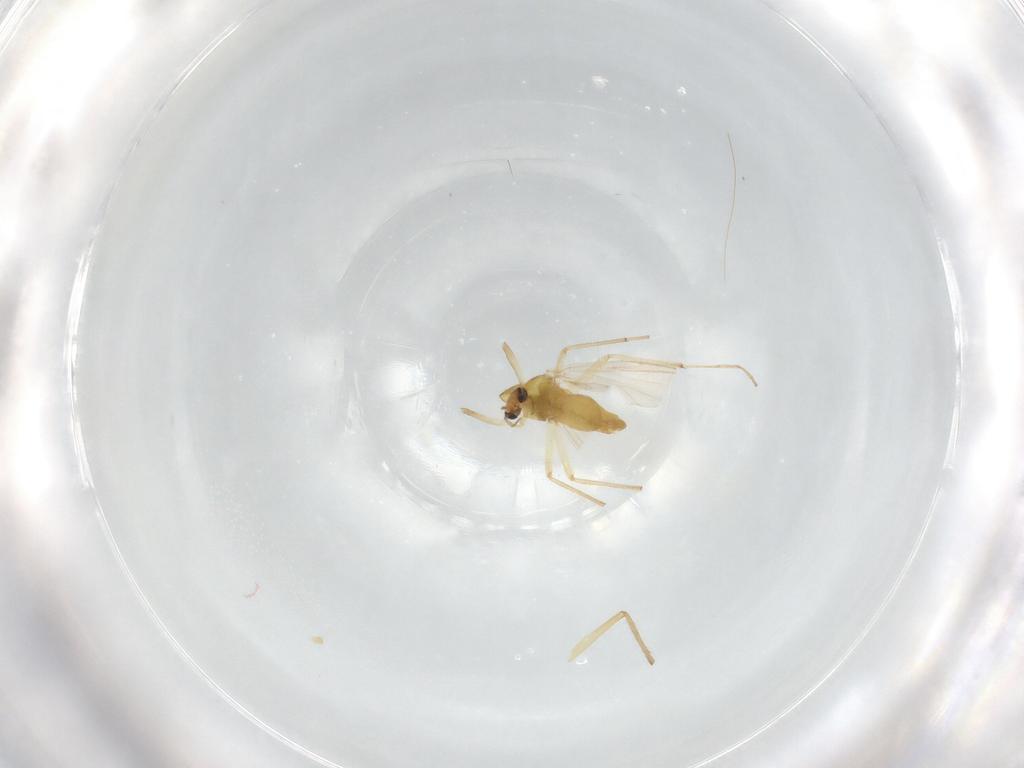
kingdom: Animalia
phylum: Arthropoda
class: Insecta
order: Diptera
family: Chironomidae
